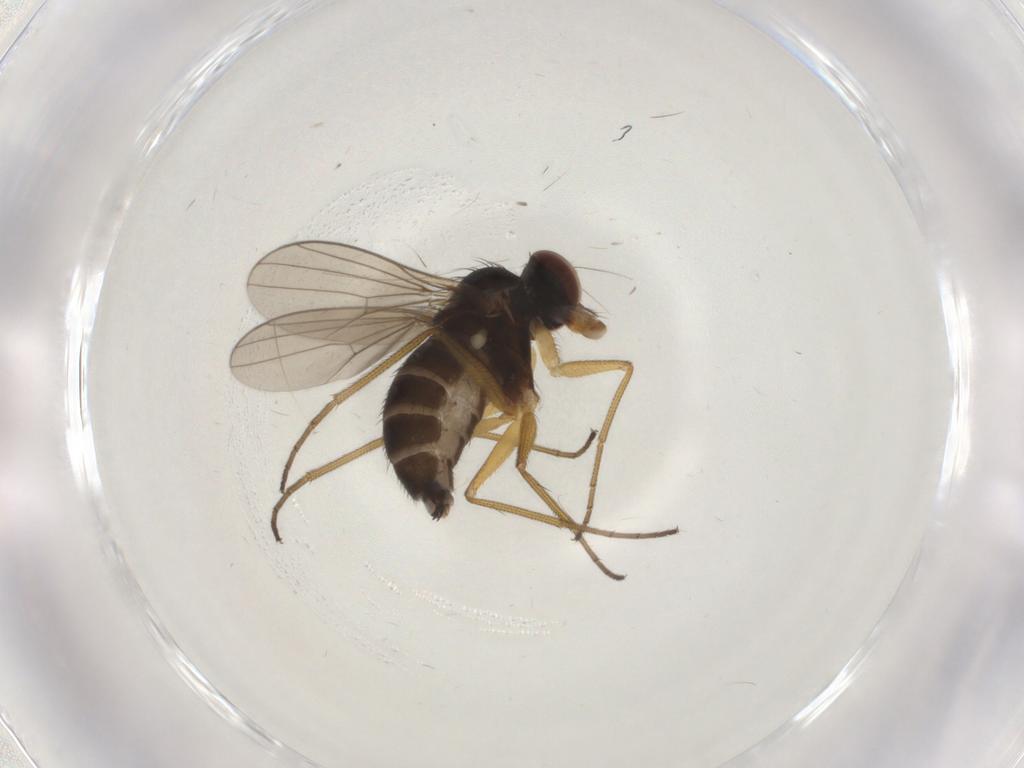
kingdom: Animalia
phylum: Arthropoda
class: Insecta
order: Diptera
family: Dolichopodidae
